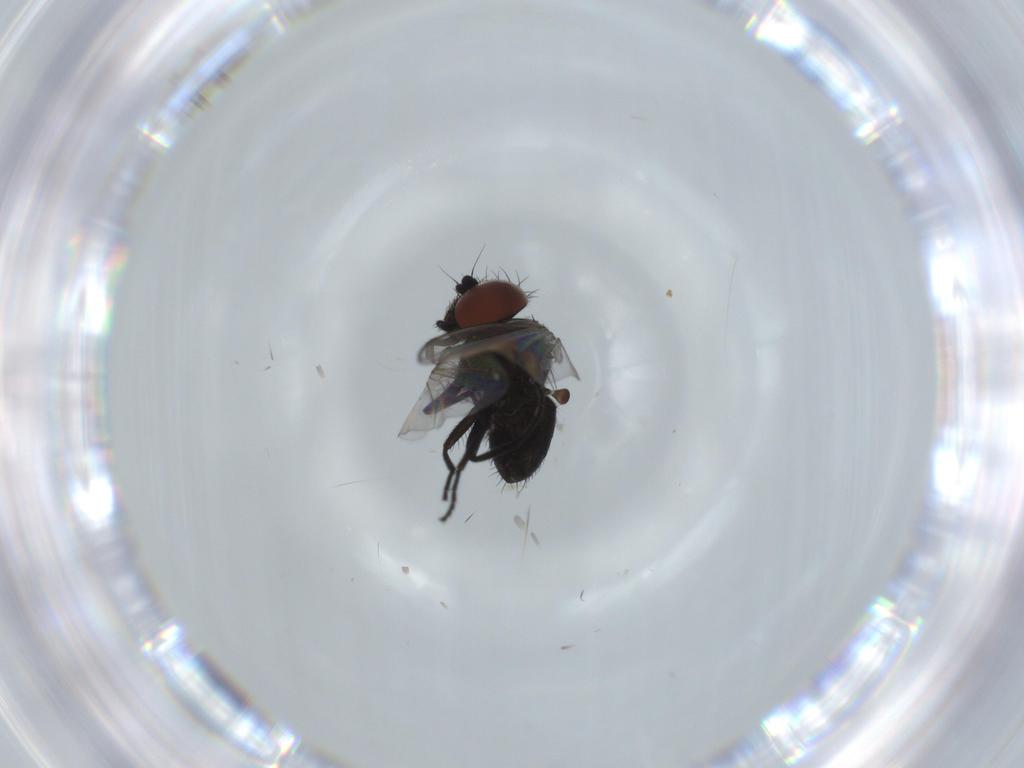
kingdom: Animalia
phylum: Arthropoda
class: Insecta
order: Diptera
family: Milichiidae
